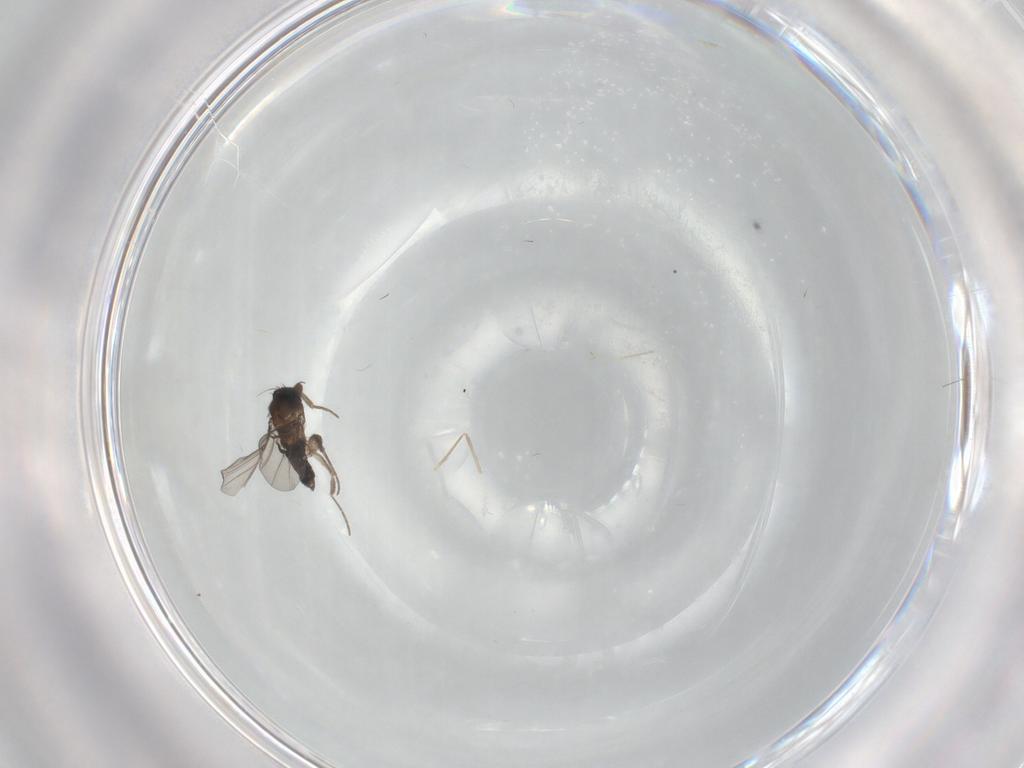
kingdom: Animalia
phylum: Arthropoda
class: Insecta
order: Diptera
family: Phoridae
